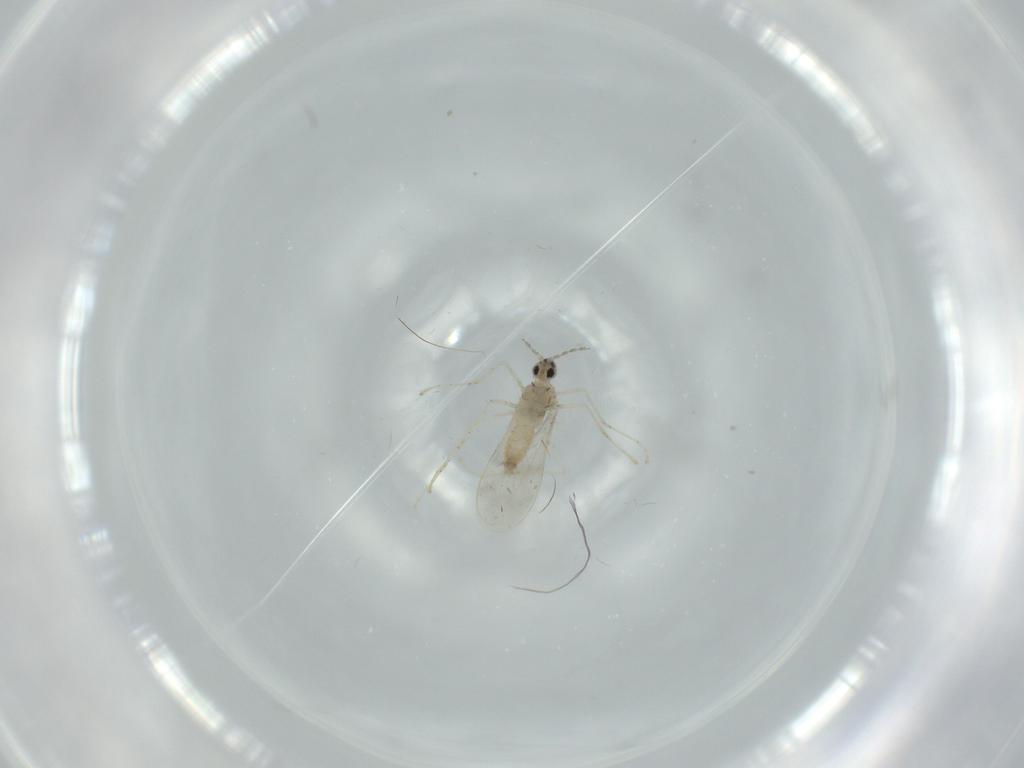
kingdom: Animalia
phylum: Arthropoda
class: Insecta
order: Diptera
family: Cecidomyiidae
